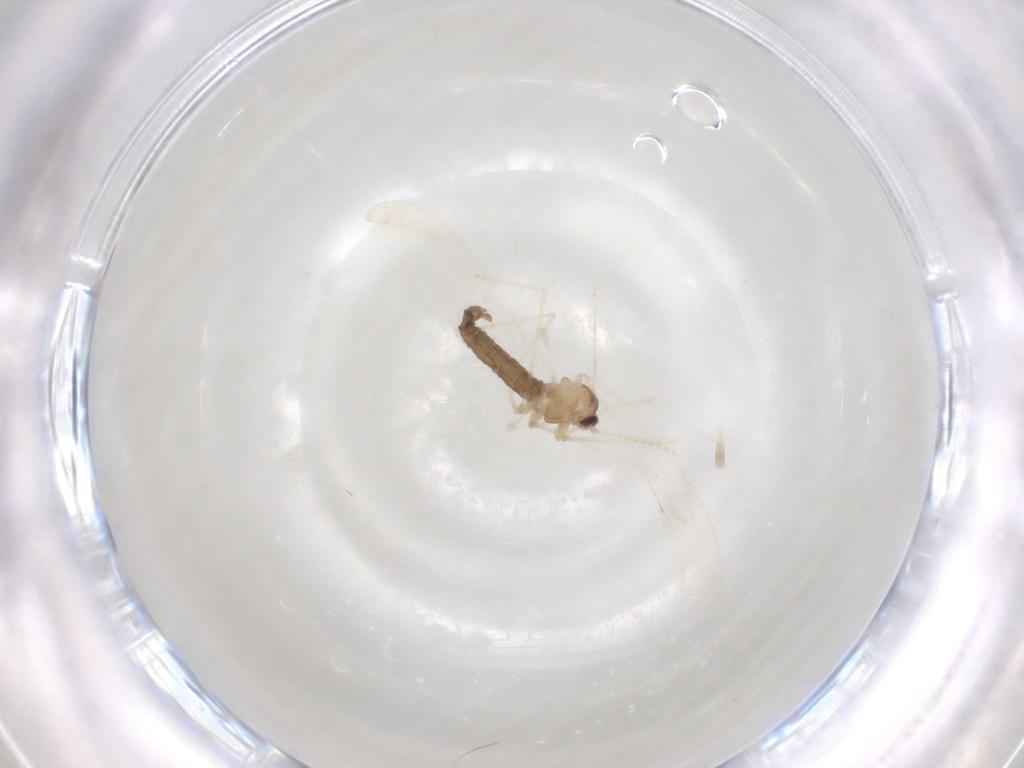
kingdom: Animalia
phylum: Arthropoda
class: Insecta
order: Diptera
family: Cecidomyiidae
